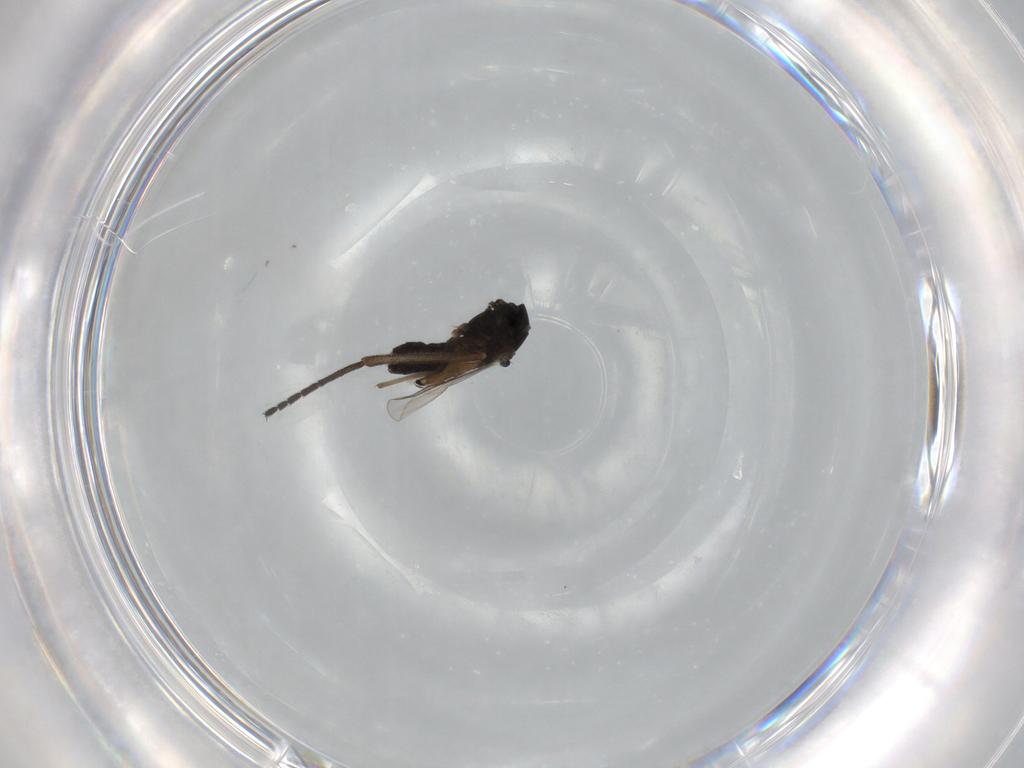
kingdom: Animalia
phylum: Arthropoda
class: Insecta
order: Diptera
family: Chironomidae
